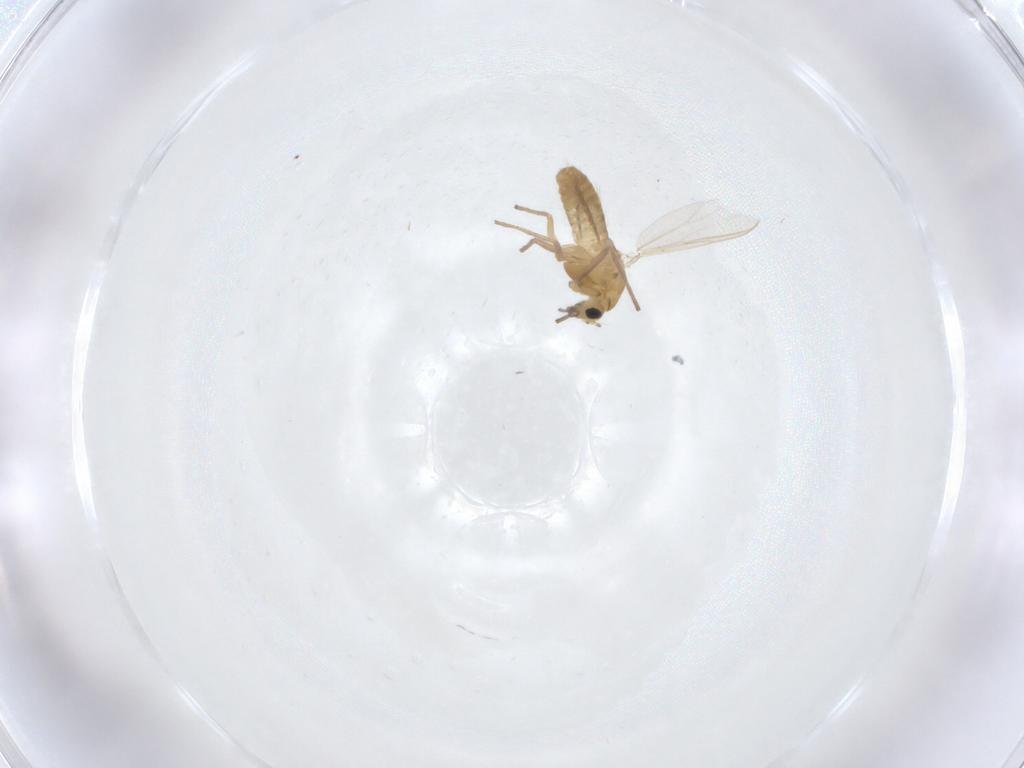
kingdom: Animalia
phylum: Arthropoda
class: Insecta
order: Diptera
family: Chironomidae
